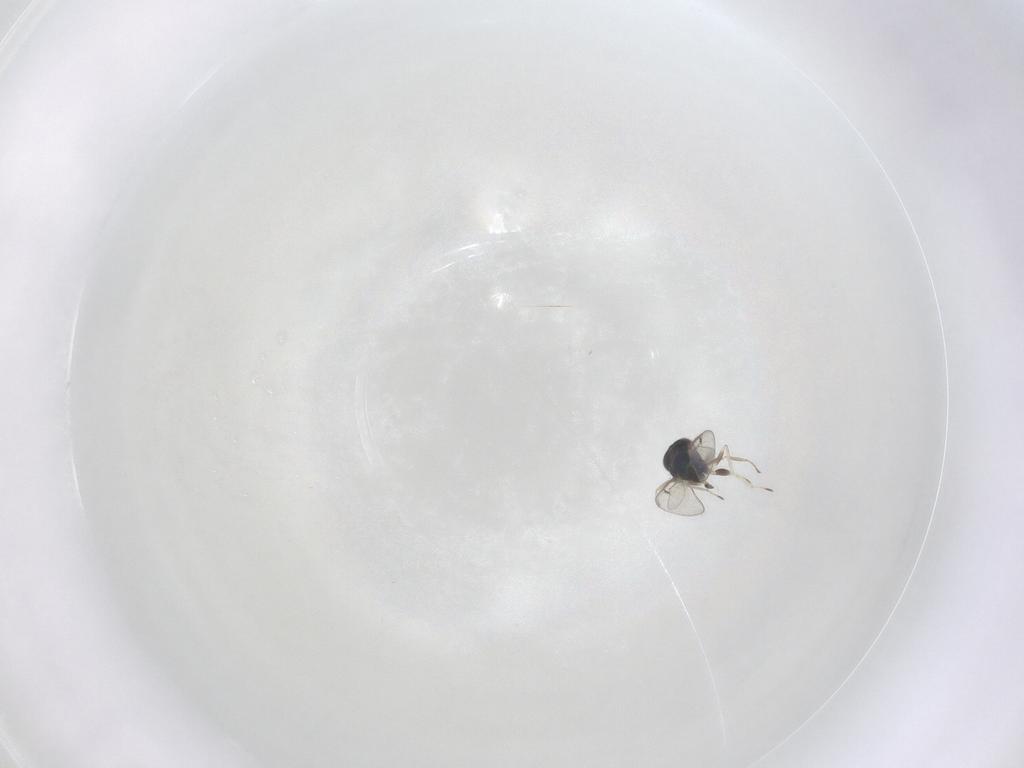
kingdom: Animalia
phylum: Arthropoda
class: Insecta
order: Hymenoptera
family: Eulophidae
